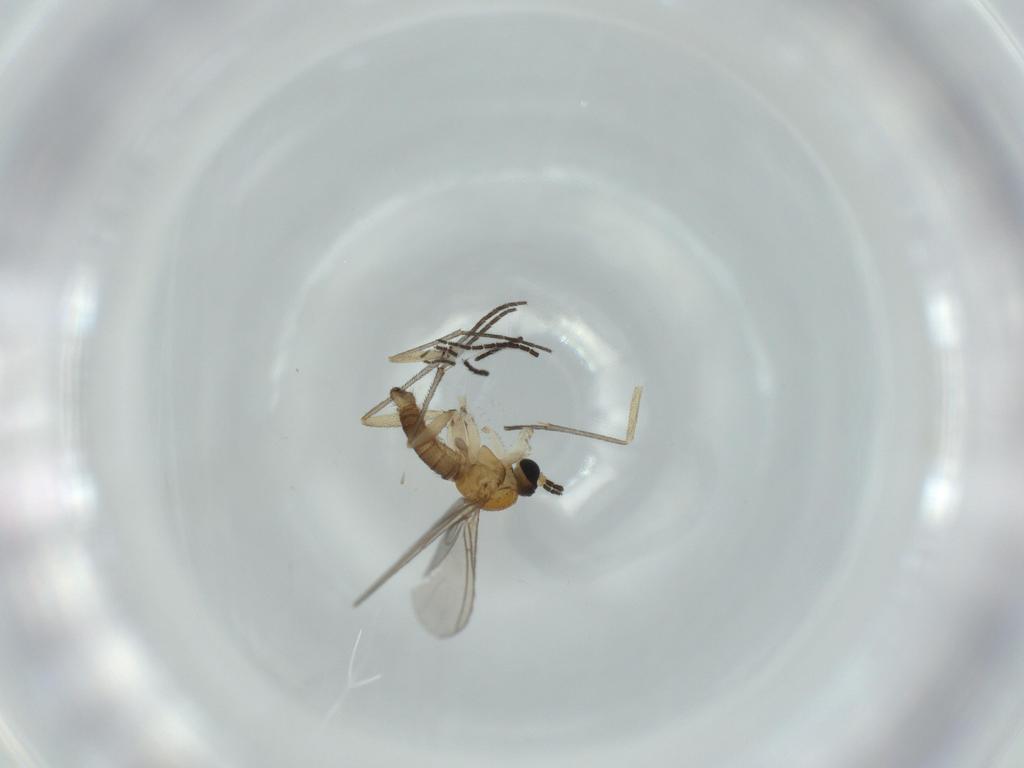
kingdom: Animalia
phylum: Arthropoda
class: Insecta
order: Diptera
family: Sciaridae
